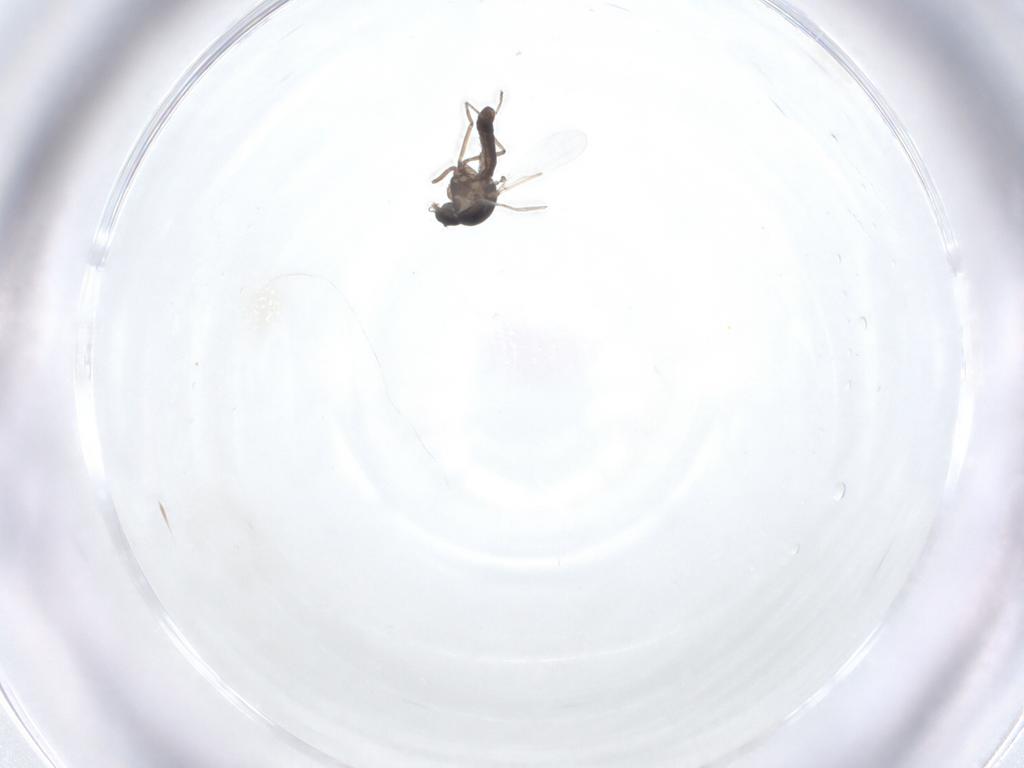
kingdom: Animalia
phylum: Arthropoda
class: Insecta
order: Diptera
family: Ceratopogonidae
